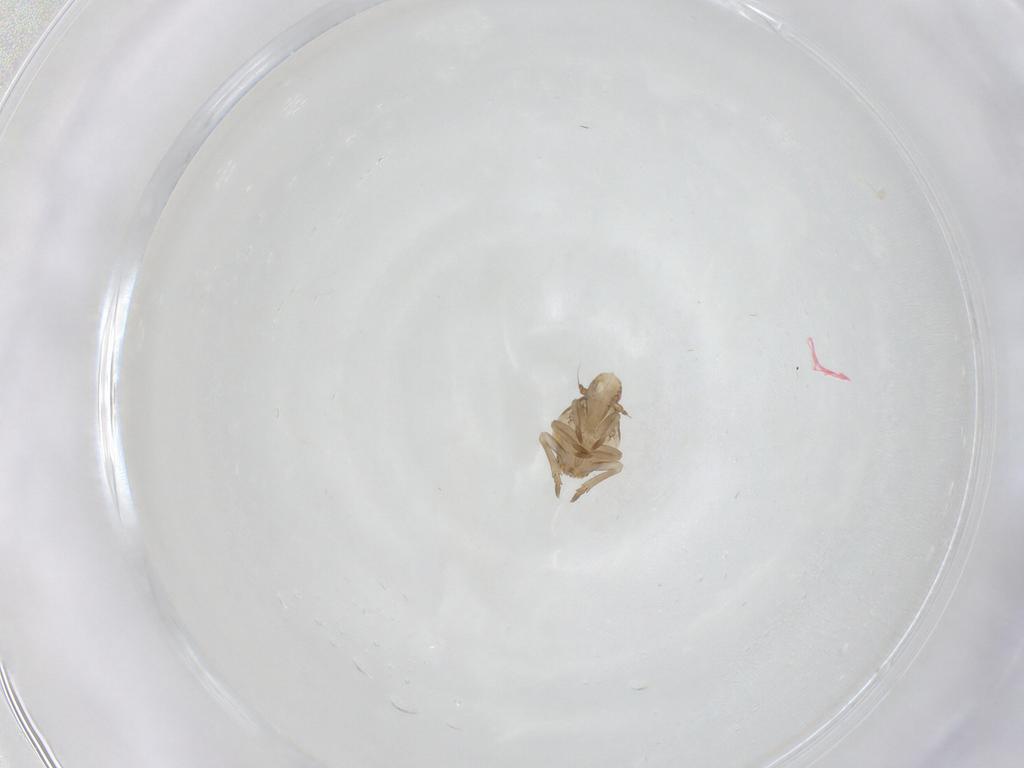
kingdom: Animalia
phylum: Arthropoda
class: Insecta
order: Hemiptera
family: Flatidae
